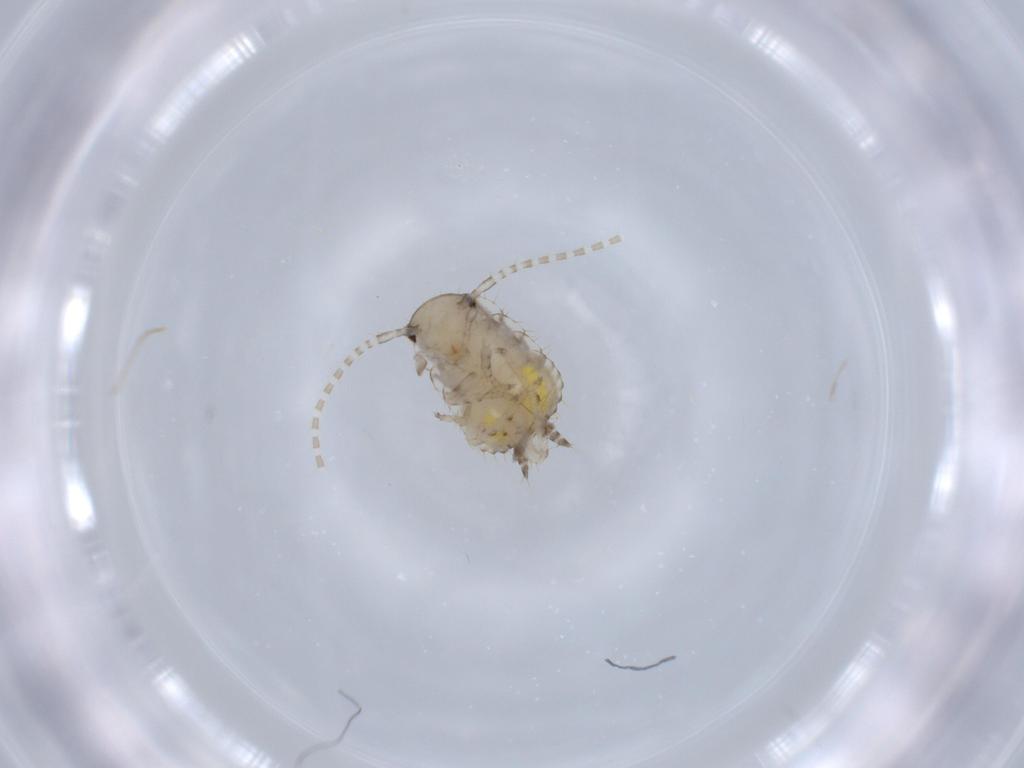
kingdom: Animalia
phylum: Arthropoda
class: Insecta
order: Blattodea
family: Ectobiidae
